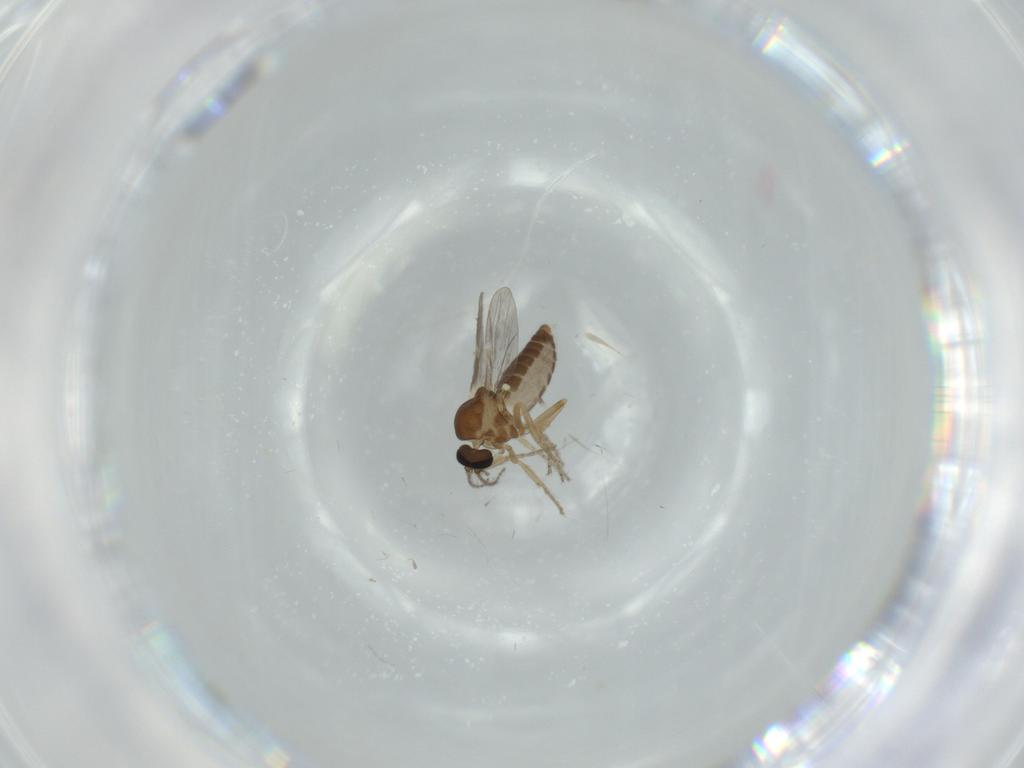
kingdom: Animalia
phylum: Arthropoda
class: Insecta
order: Diptera
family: Ceratopogonidae
